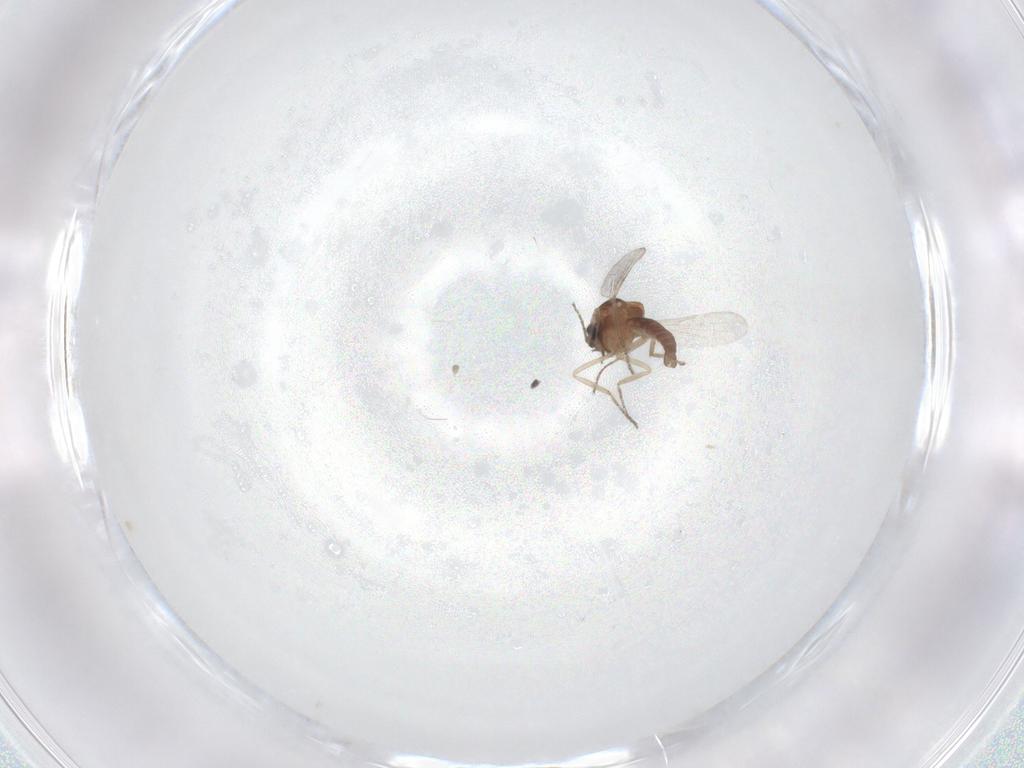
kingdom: Animalia
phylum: Arthropoda
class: Insecta
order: Diptera
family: Ceratopogonidae
